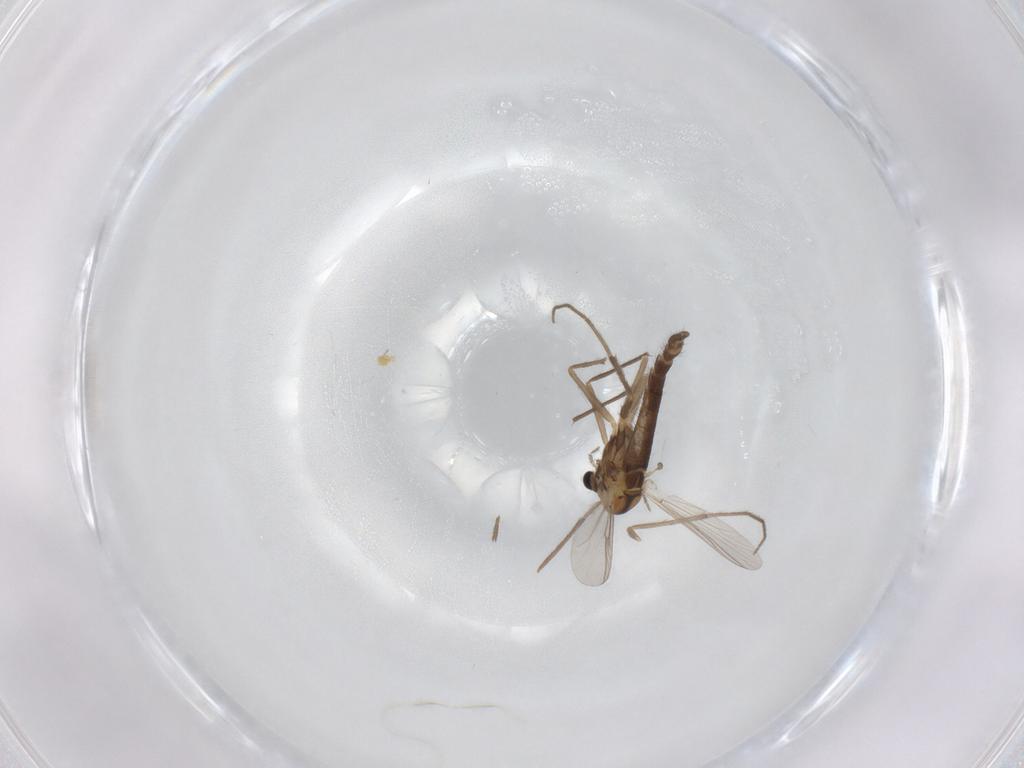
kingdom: Animalia
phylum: Arthropoda
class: Insecta
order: Diptera
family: Chironomidae
